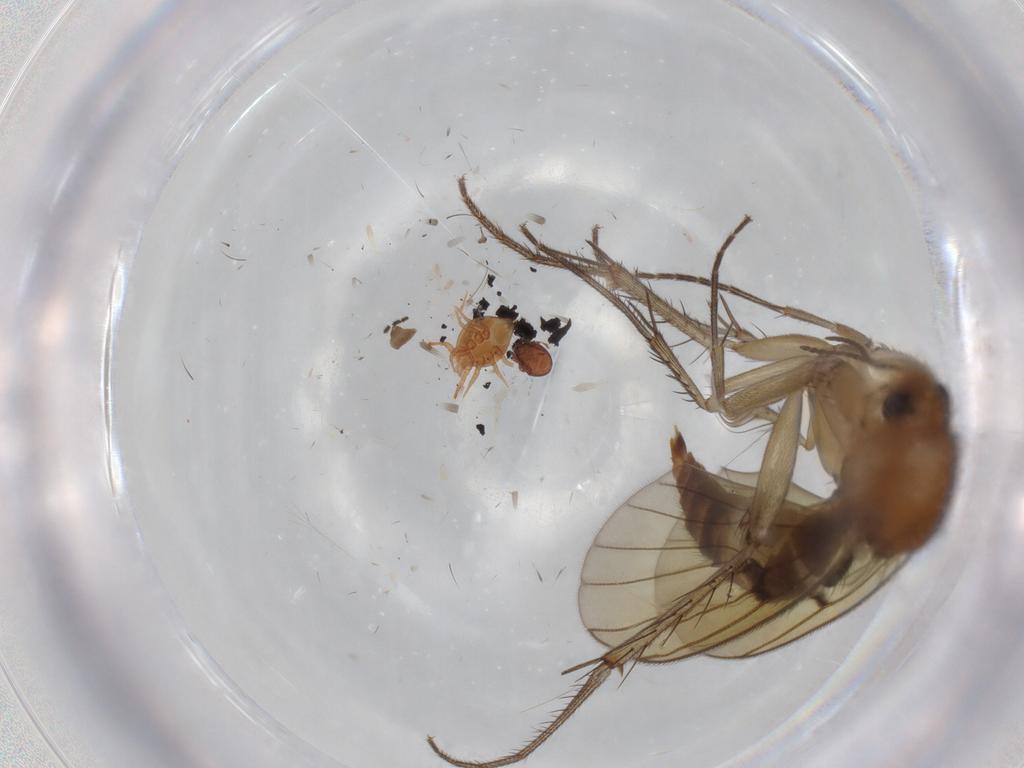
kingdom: Animalia
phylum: Arthropoda
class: Insecta
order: Diptera
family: Mycetophilidae
